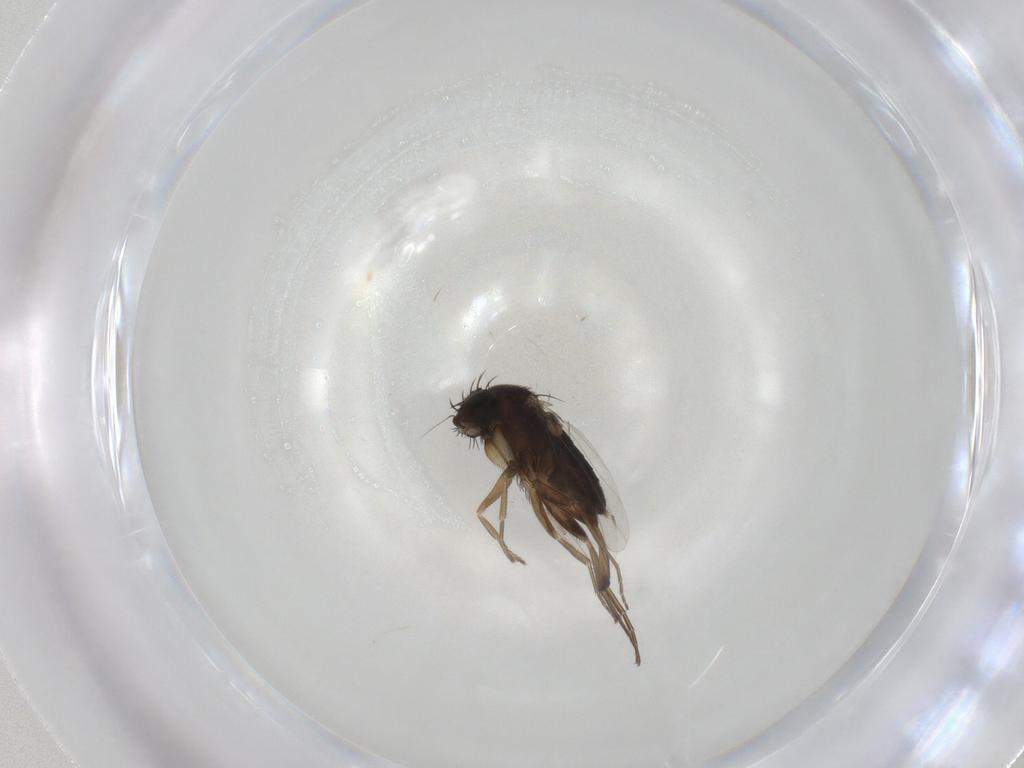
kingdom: Animalia
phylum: Arthropoda
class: Insecta
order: Diptera
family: Phoridae
